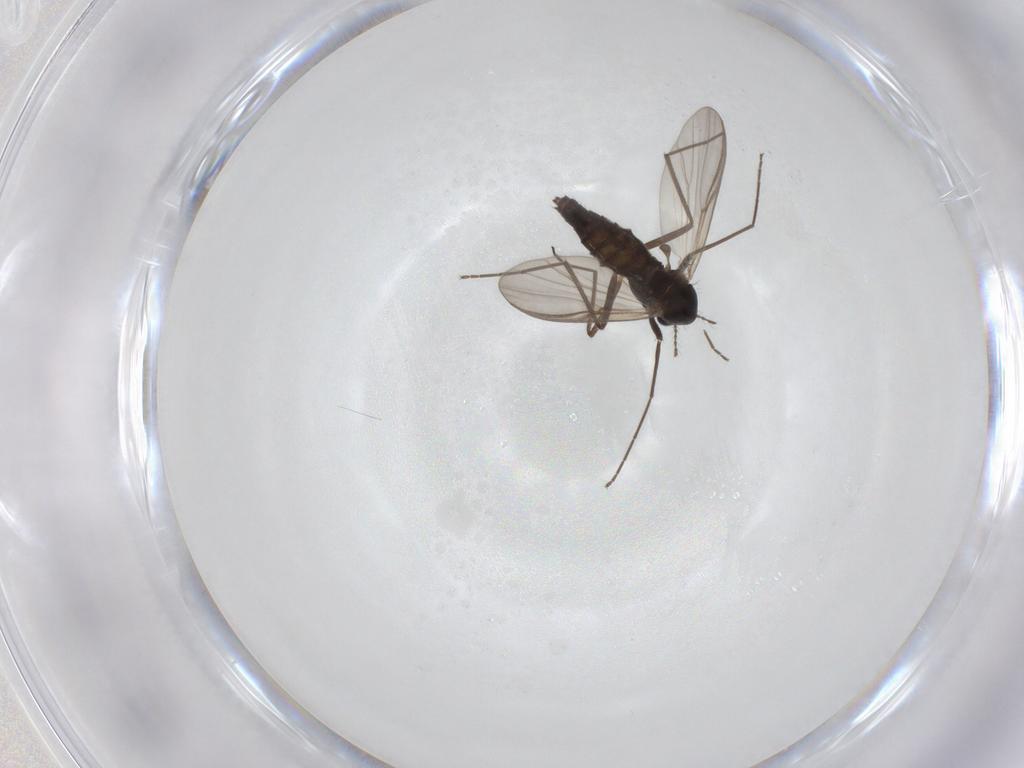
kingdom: Animalia
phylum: Arthropoda
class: Insecta
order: Diptera
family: Chironomidae
